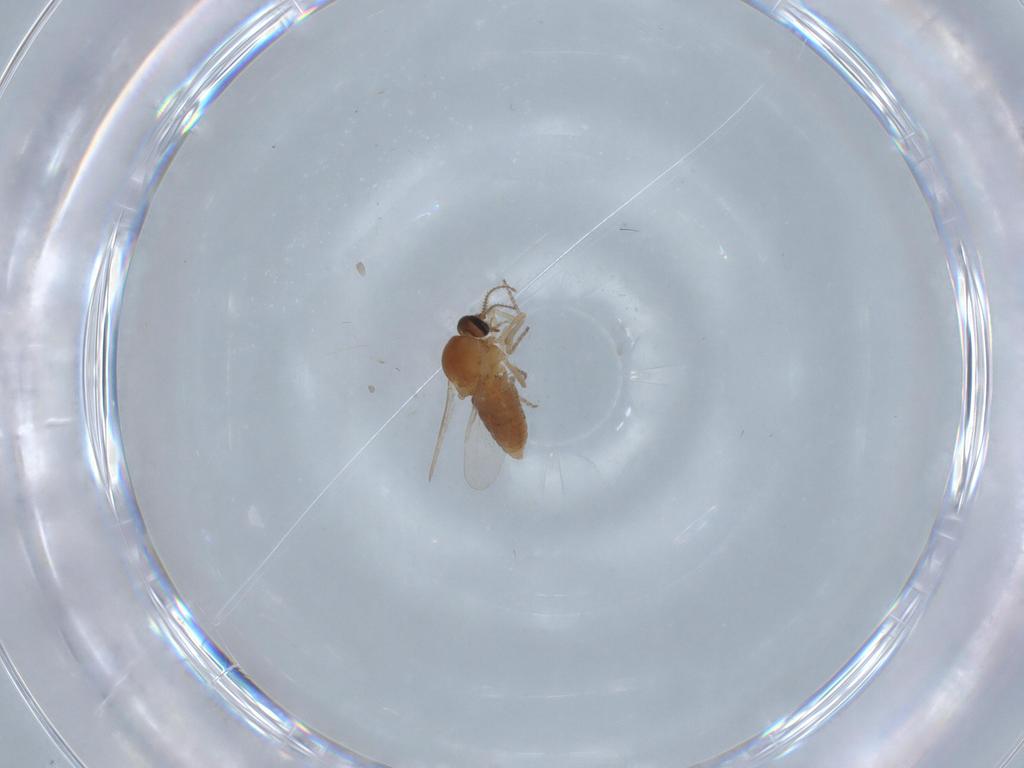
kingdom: Animalia
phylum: Arthropoda
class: Insecta
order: Diptera
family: Ceratopogonidae
